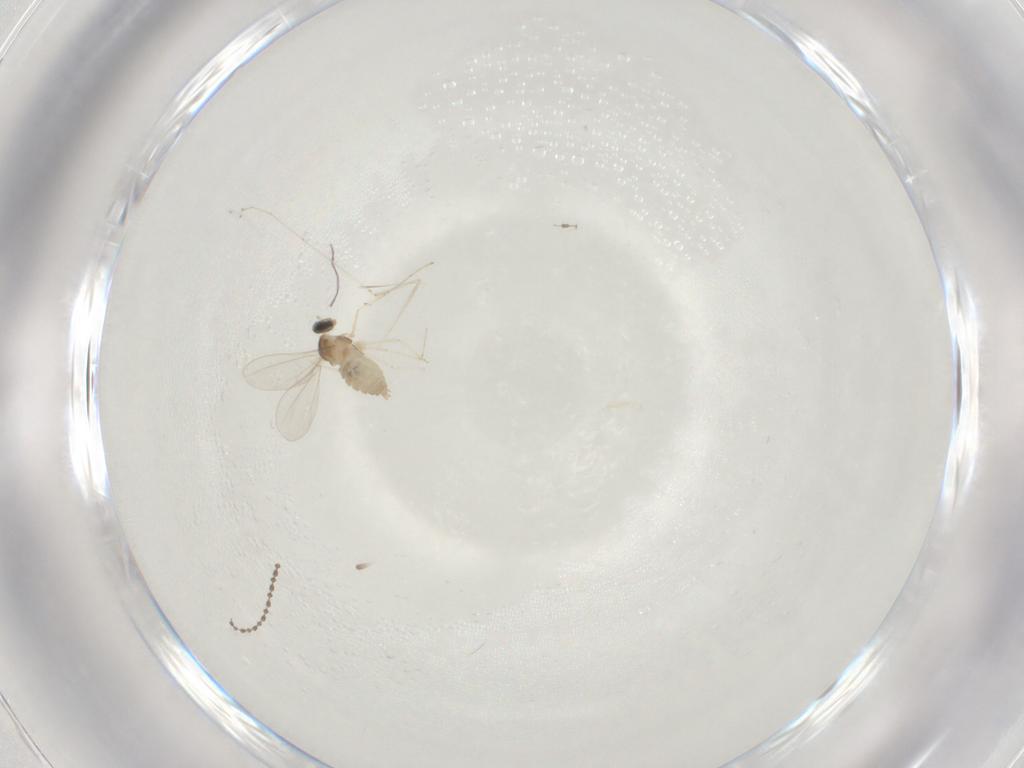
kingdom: Animalia
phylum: Arthropoda
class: Insecta
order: Diptera
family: Cecidomyiidae
